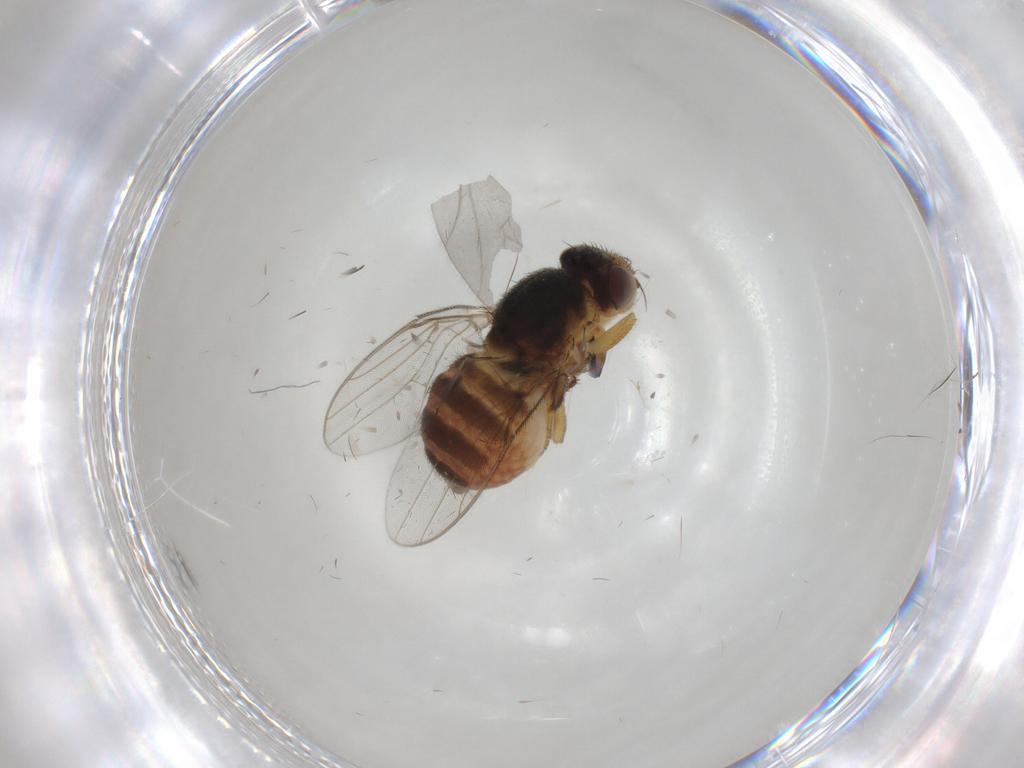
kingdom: Animalia
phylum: Arthropoda
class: Insecta
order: Diptera
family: Chloropidae
